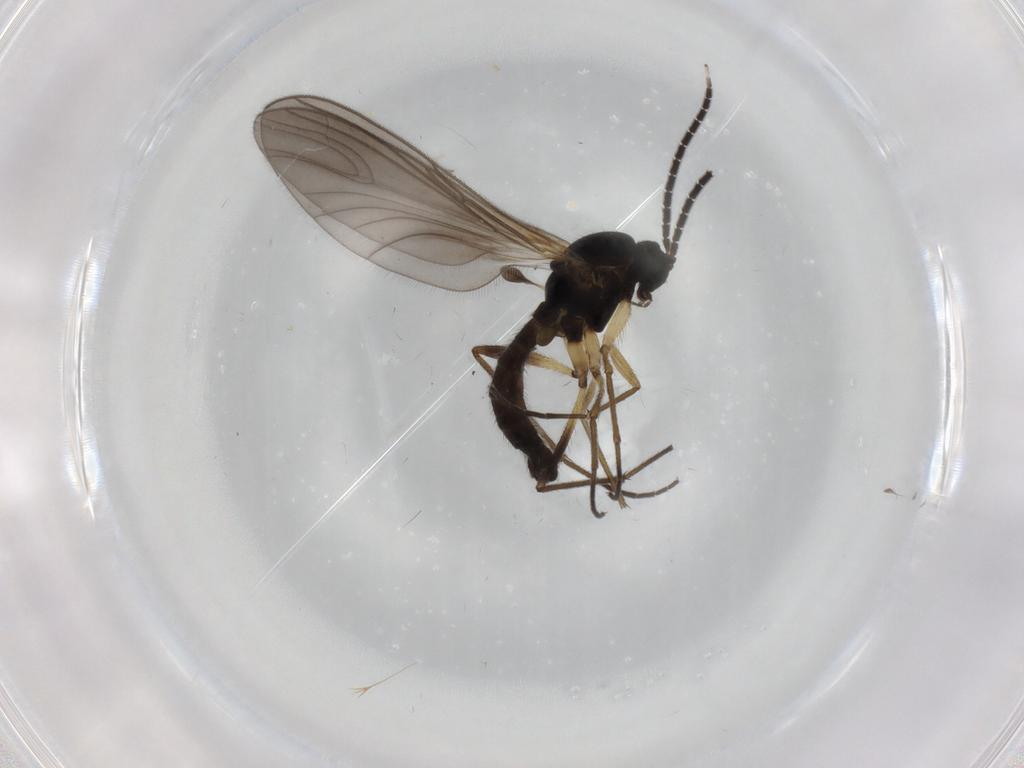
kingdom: Animalia
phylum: Arthropoda
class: Insecta
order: Diptera
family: Sciaridae
